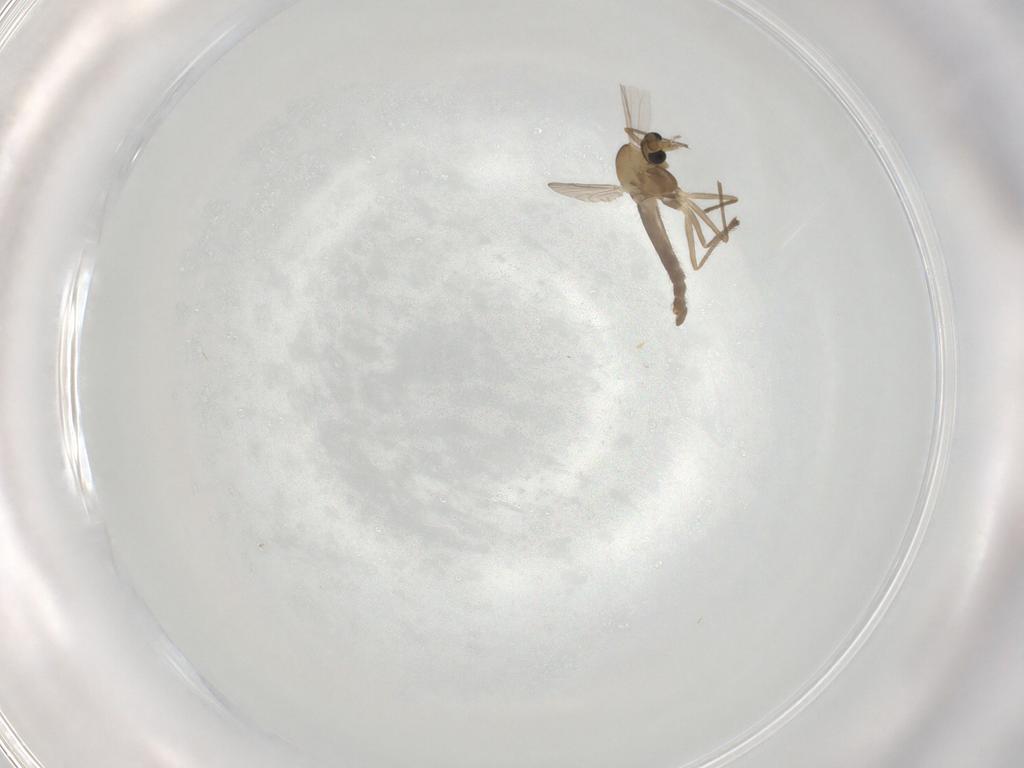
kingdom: Animalia
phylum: Arthropoda
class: Insecta
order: Diptera
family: Chironomidae
